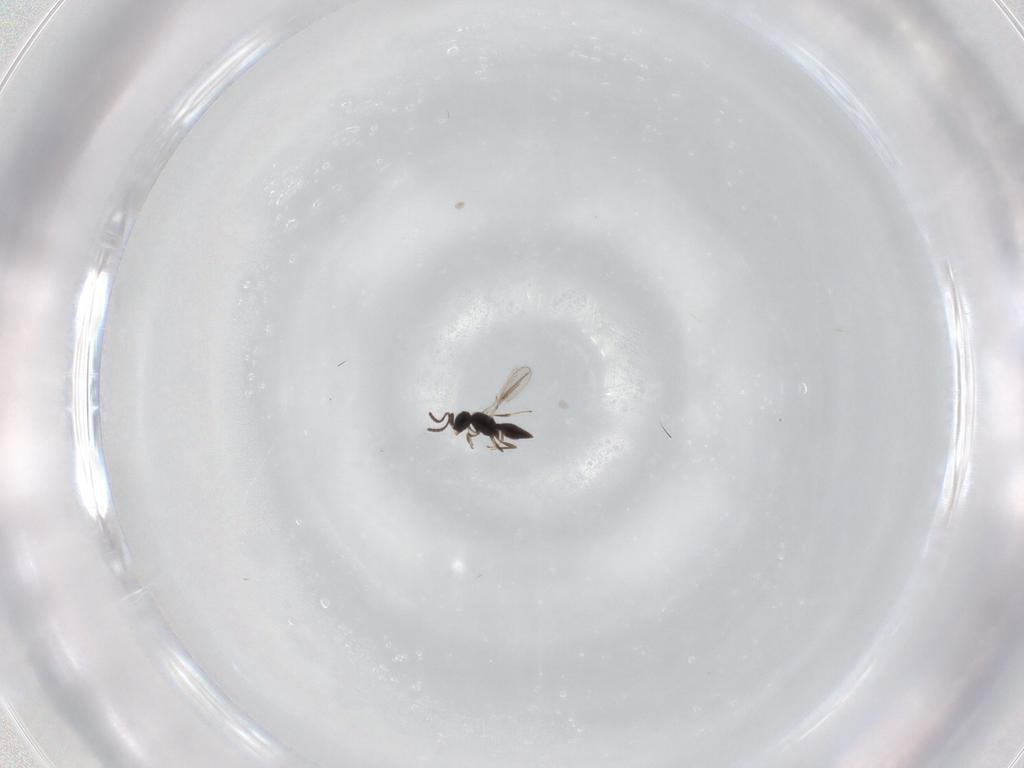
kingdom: Animalia
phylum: Arthropoda
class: Insecta
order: Hymenoptera
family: Scelionidae
